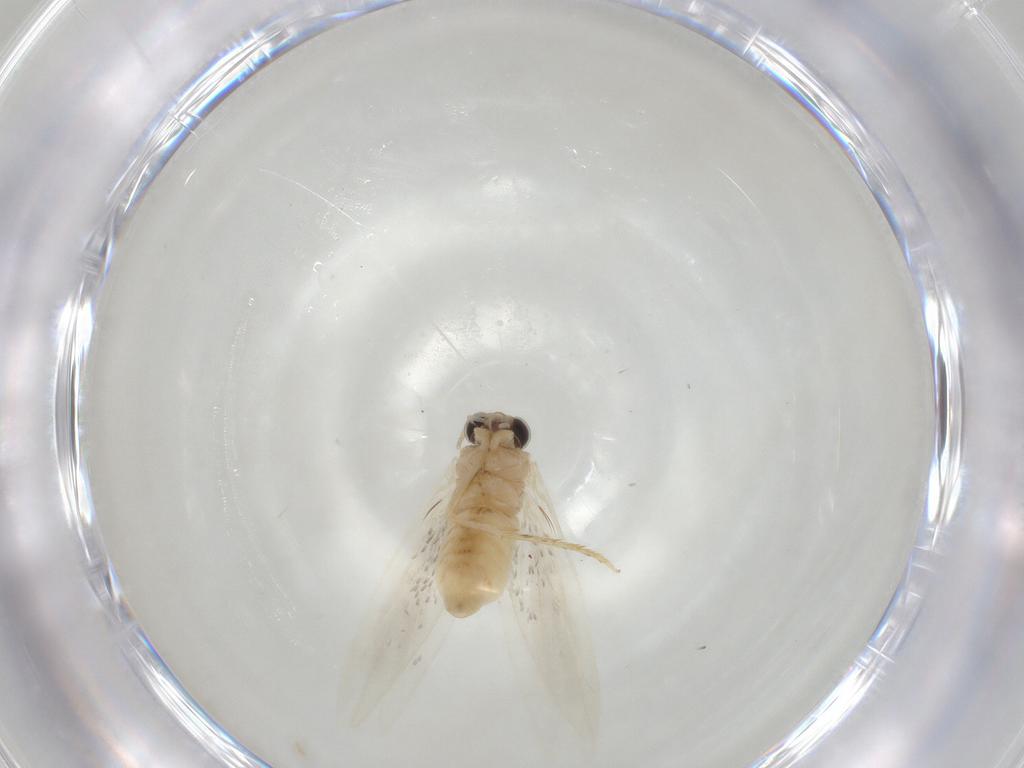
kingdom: Animalia
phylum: Arthropoda
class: Insecta
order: Lepidoptera
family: Tineidae
